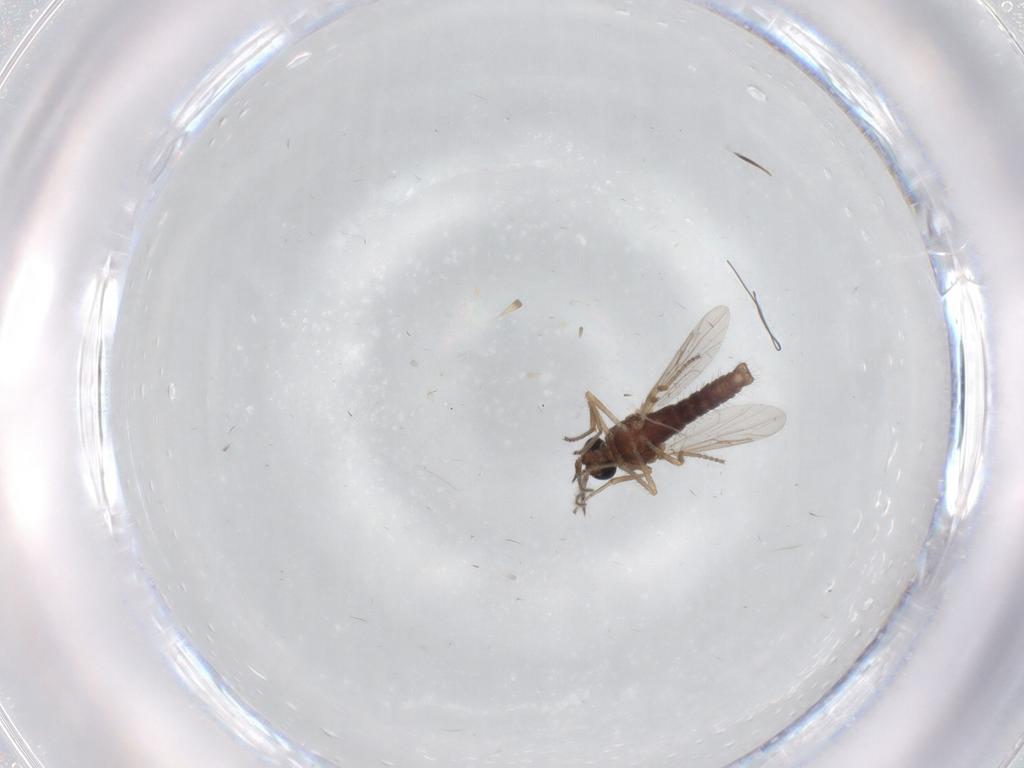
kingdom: Animalia
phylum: Arthropoda
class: Insecta
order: Diptera
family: Ceratopogonidae
